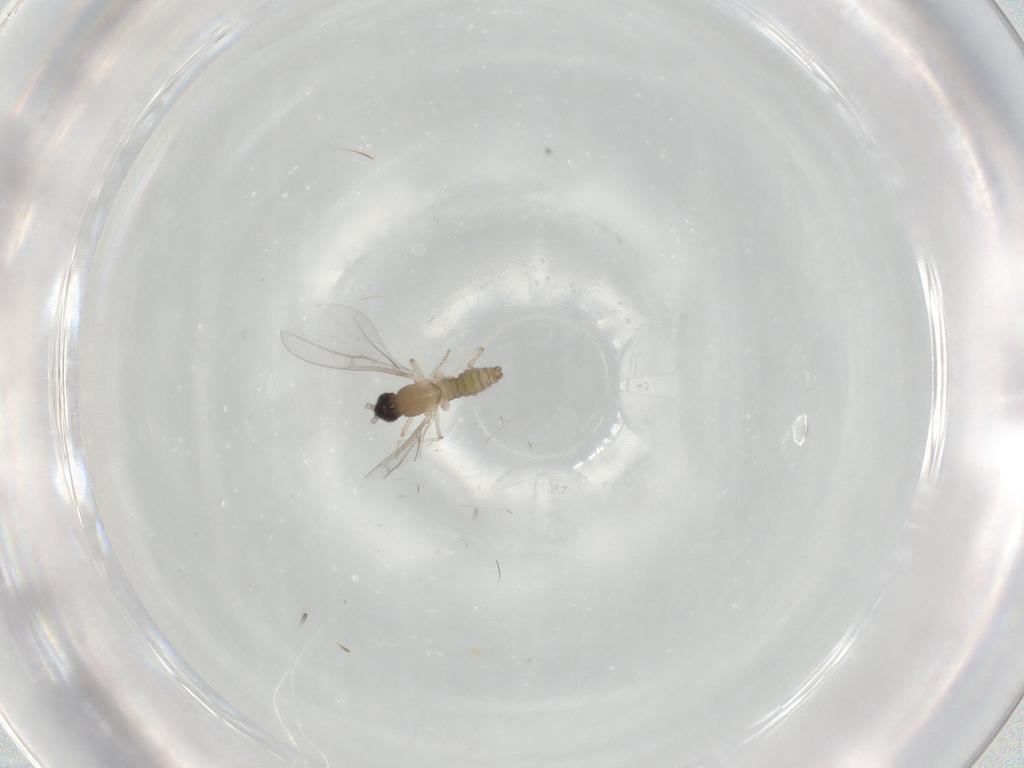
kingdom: Animalia
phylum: Arthropoda
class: Insecta
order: Diptera
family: Cecidomyiidae
